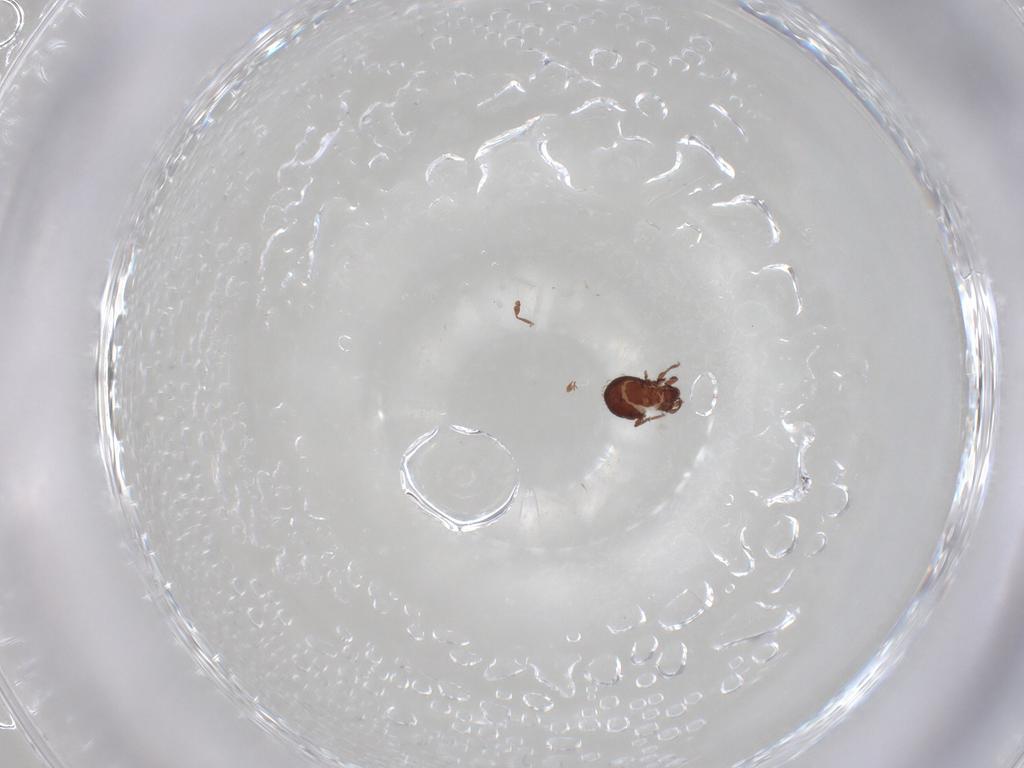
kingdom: Animalia
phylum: Arthropoda
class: Arachnida
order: Sarcoptiformes
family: Scheloribatidae
